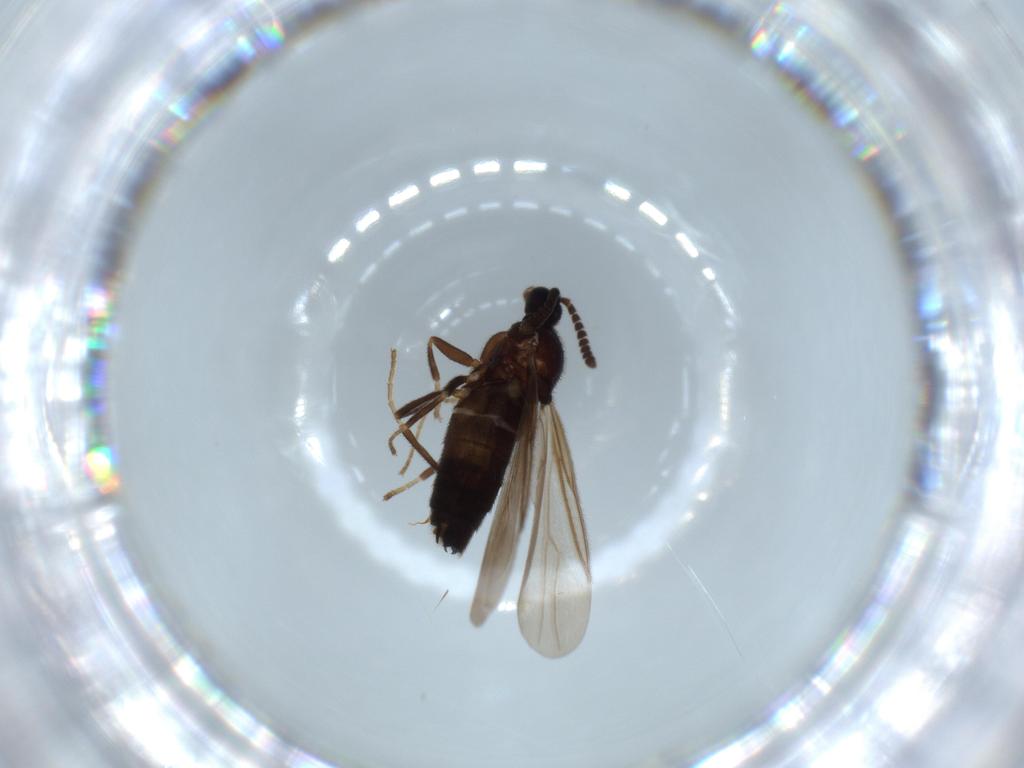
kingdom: Animalia
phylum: Arthropoda
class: Insecta
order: Diptera
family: Scatopsidae
